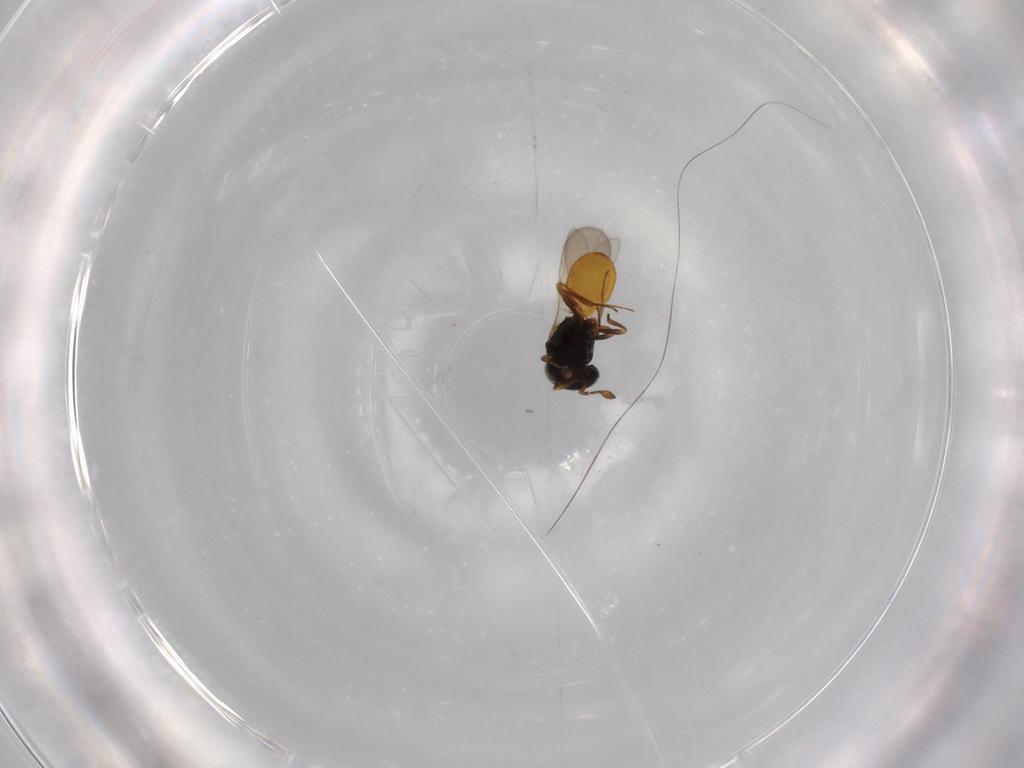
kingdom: Animalia
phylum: Arthropoda
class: Insecta
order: Hymenoptera
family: Scelionidae
